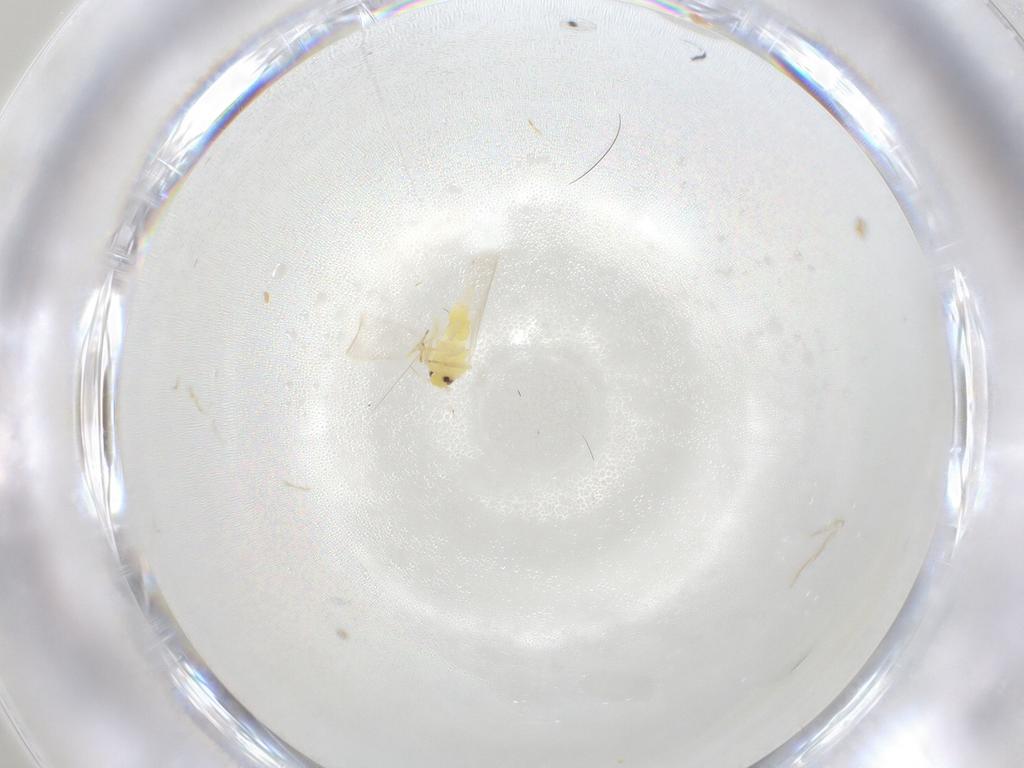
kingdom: Animalia
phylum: Arthropoda
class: Insecta
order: Hemiptera
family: Aleyrodidae
